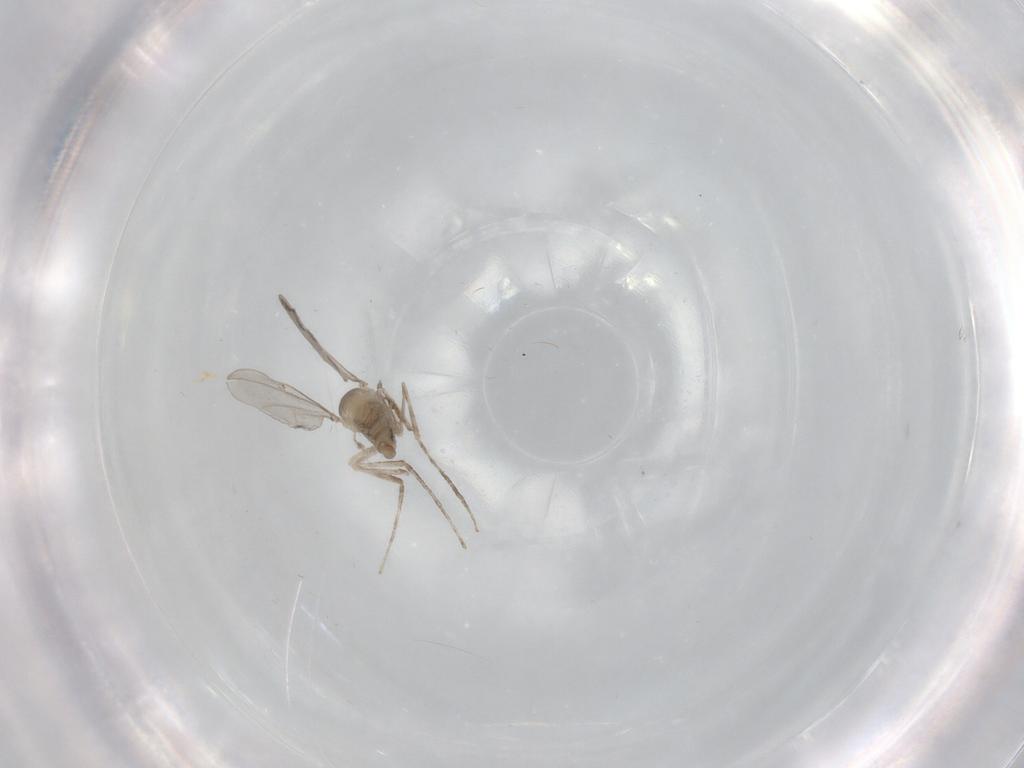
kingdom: Animalia
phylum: Arthropoda
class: Insecta
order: Diptera
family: Cecidomyiidae
